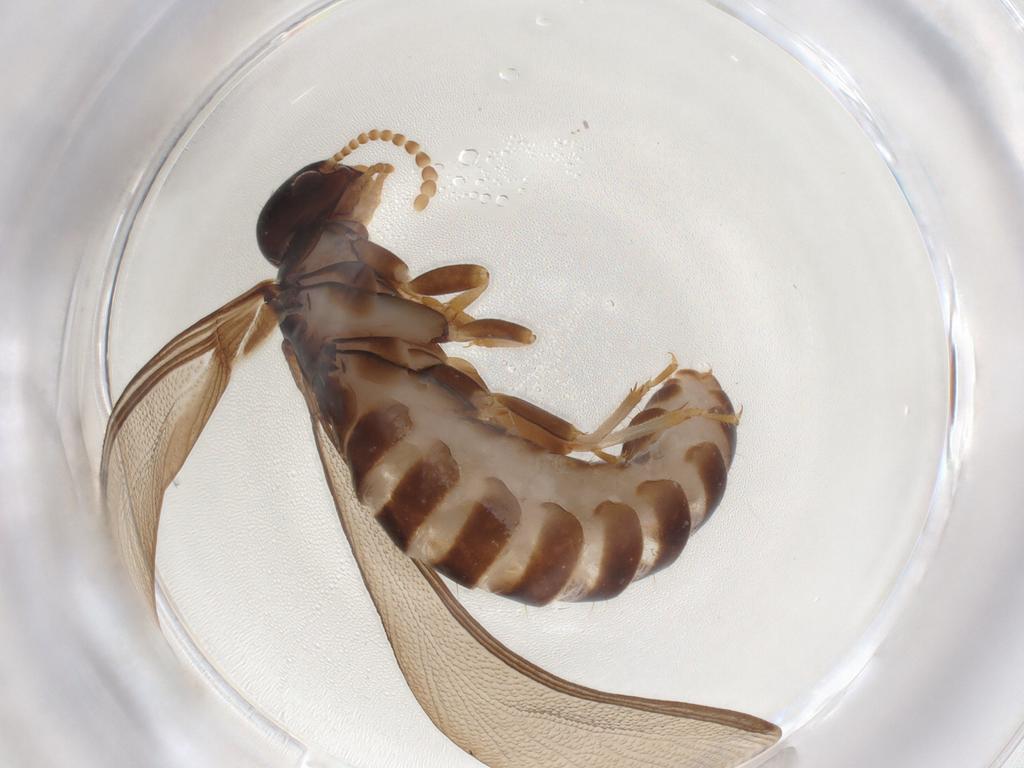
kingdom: Animalia
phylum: Arthropoda
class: Insecta
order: Blattodea
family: Kalotermitidae
